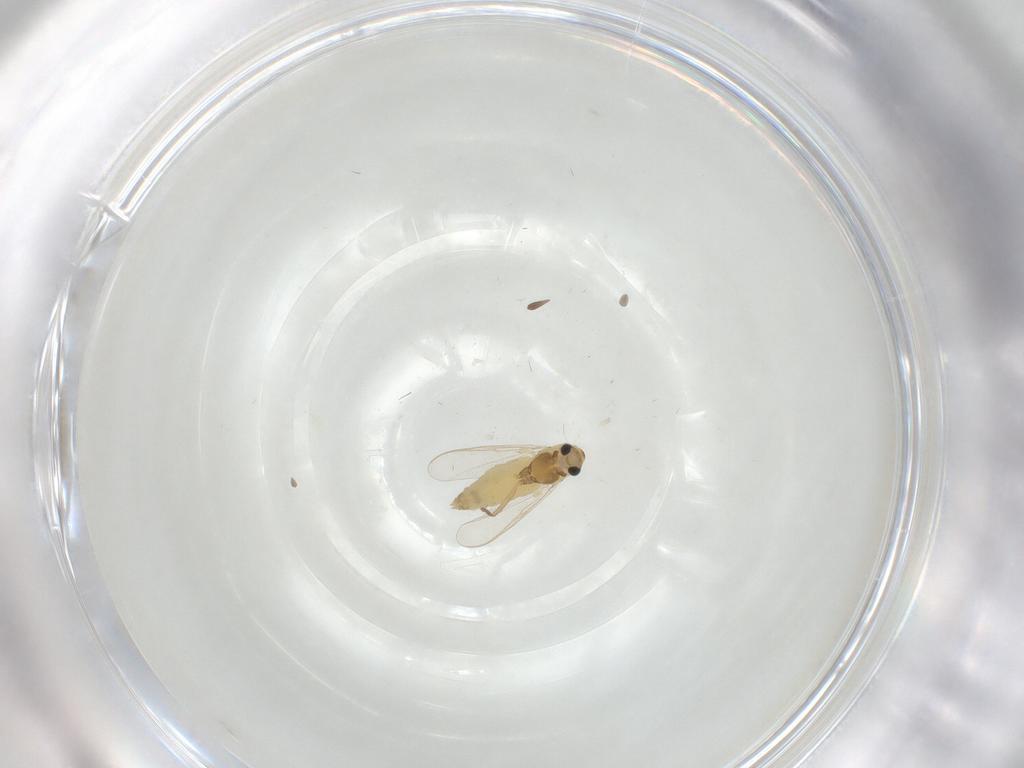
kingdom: Animalia
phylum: Arthropoda
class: Insecta
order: Diptera
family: Chironomidae
